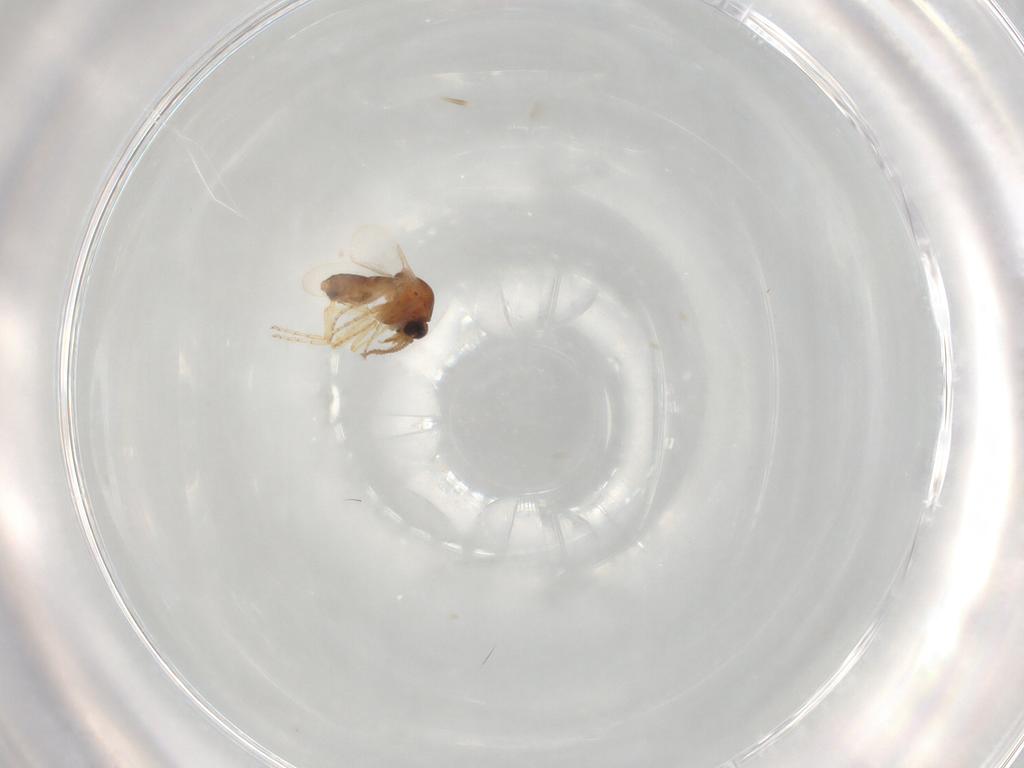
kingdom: Animalia
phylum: Arthropoda
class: Insecta
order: Diptera
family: Ceratopogonidae
